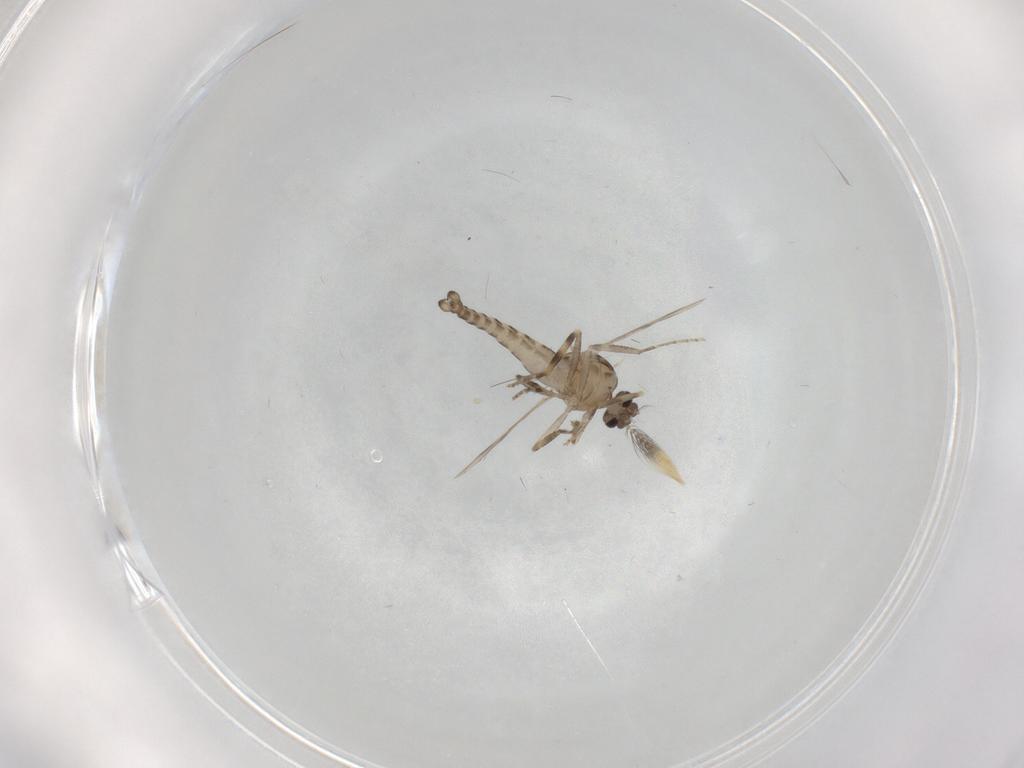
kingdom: Animalia
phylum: Arthropoda
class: Insecta
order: Diptera
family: Ceratopogonidae
